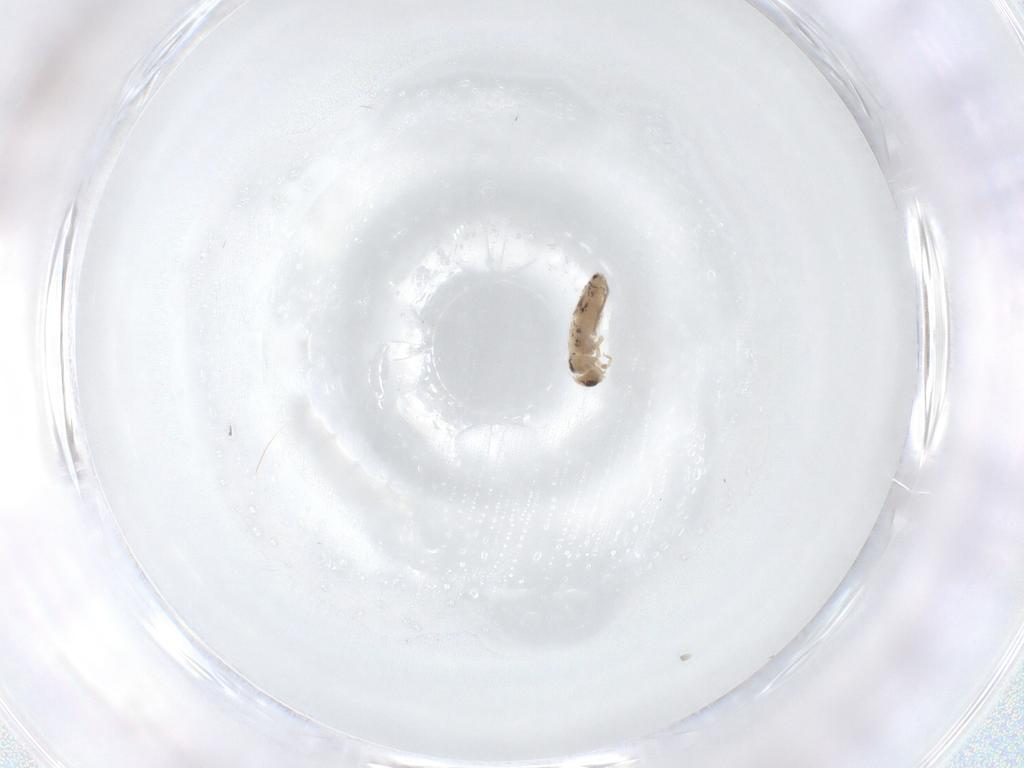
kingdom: Animalia
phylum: Arthropoda
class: Insecta
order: Diptera
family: Sciaridae
